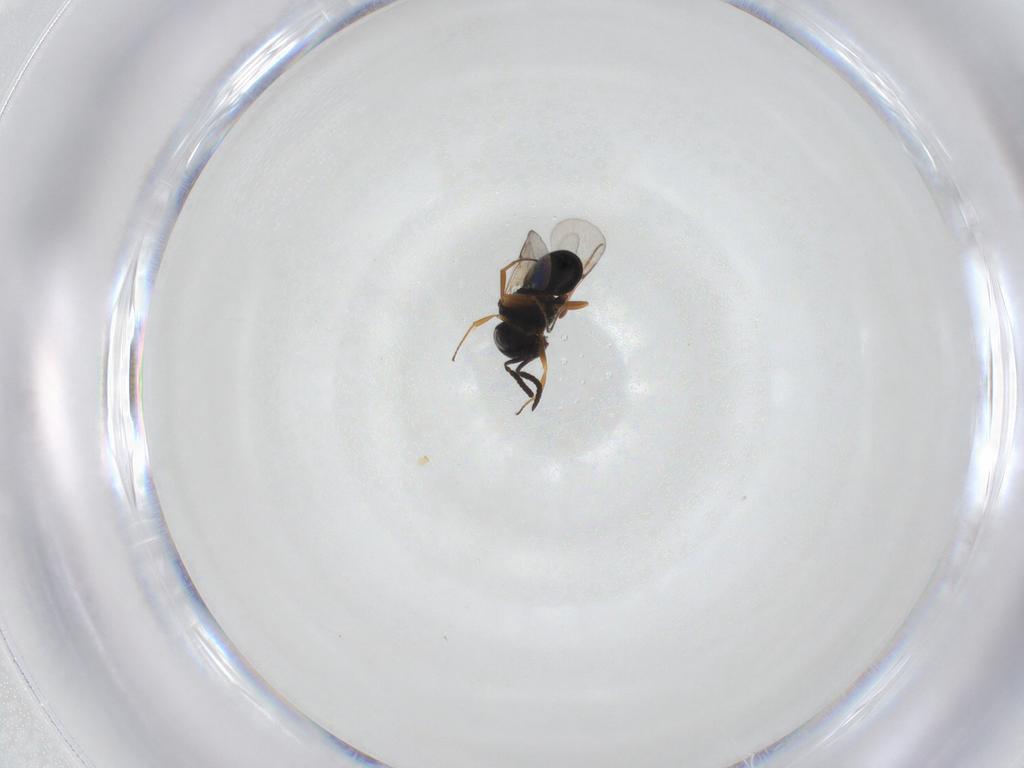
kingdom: Animalia
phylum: Arthropoda
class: Insecta
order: Hymenoptera
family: Scelionidae
